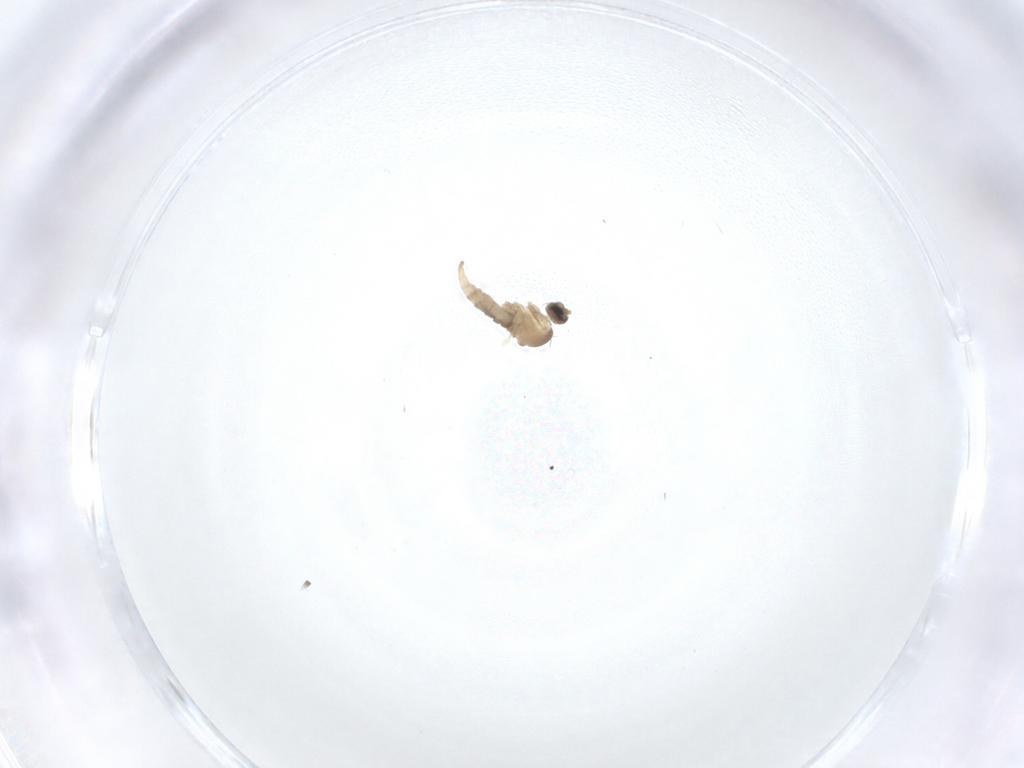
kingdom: Animalia
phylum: Arthropoda
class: Insecta
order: Diptera
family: Cecidomyiidae
